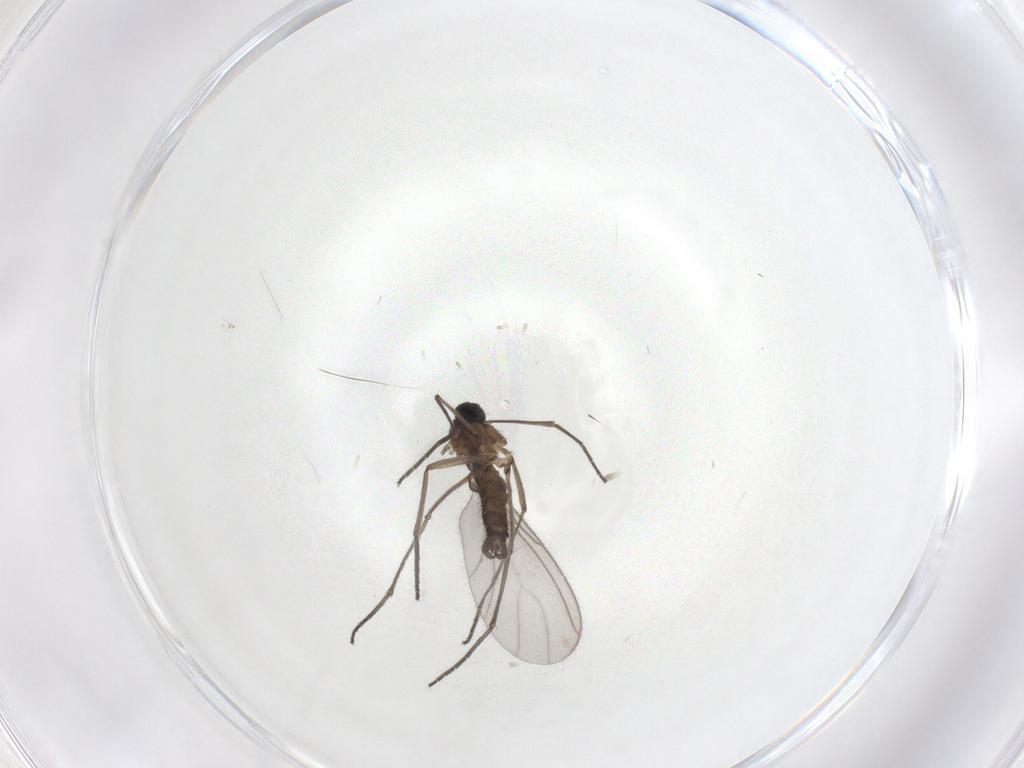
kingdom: Animalia
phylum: Arthropoda
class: Insecta
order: Diptera
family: Sciaridae
